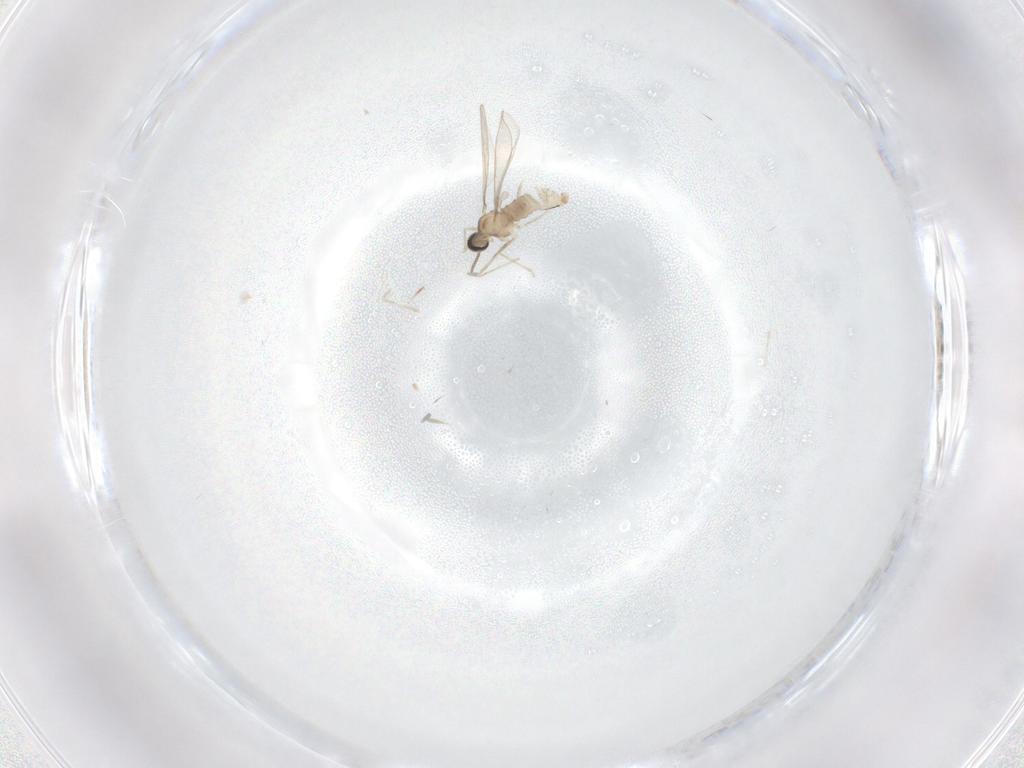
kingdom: Animalia
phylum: Arthropoda
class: Insecta
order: Diptera
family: Cecidomyiidae
